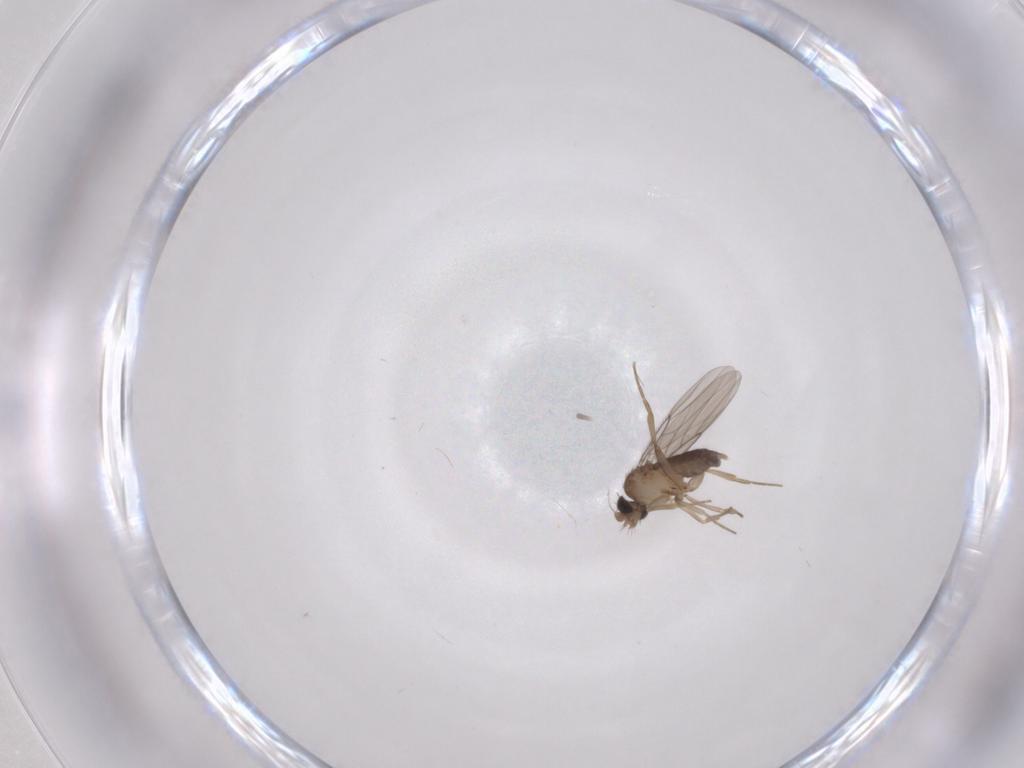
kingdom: Animalia
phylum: Arthropoda
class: Insecta
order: Diptera
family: Phoridae
